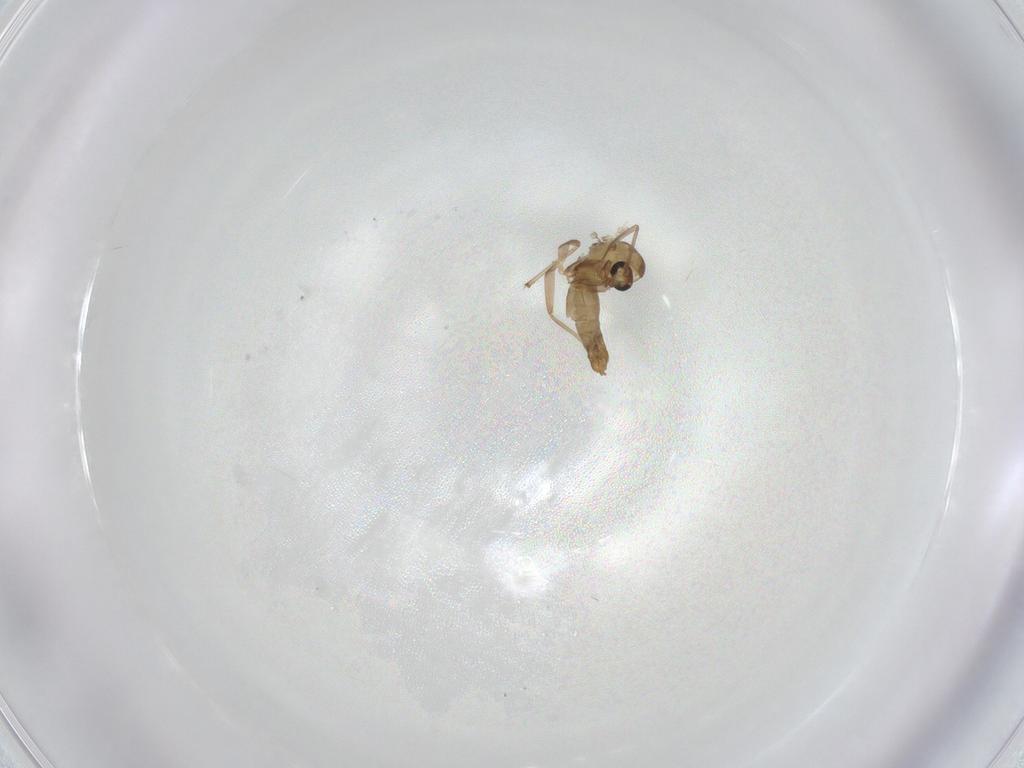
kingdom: Animalia
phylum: Arthropoda
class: Insecta
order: Diptera
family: Chironomidae
